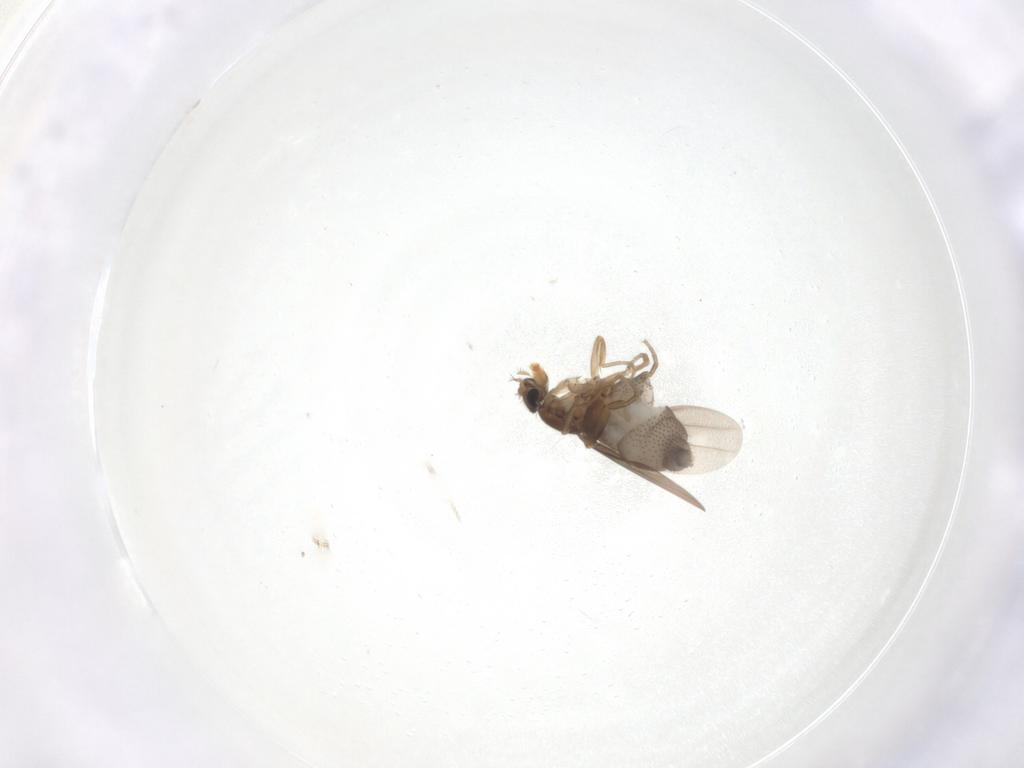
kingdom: Animalia
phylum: Arthropoda
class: Insecta
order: Diptera
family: Phoridae
